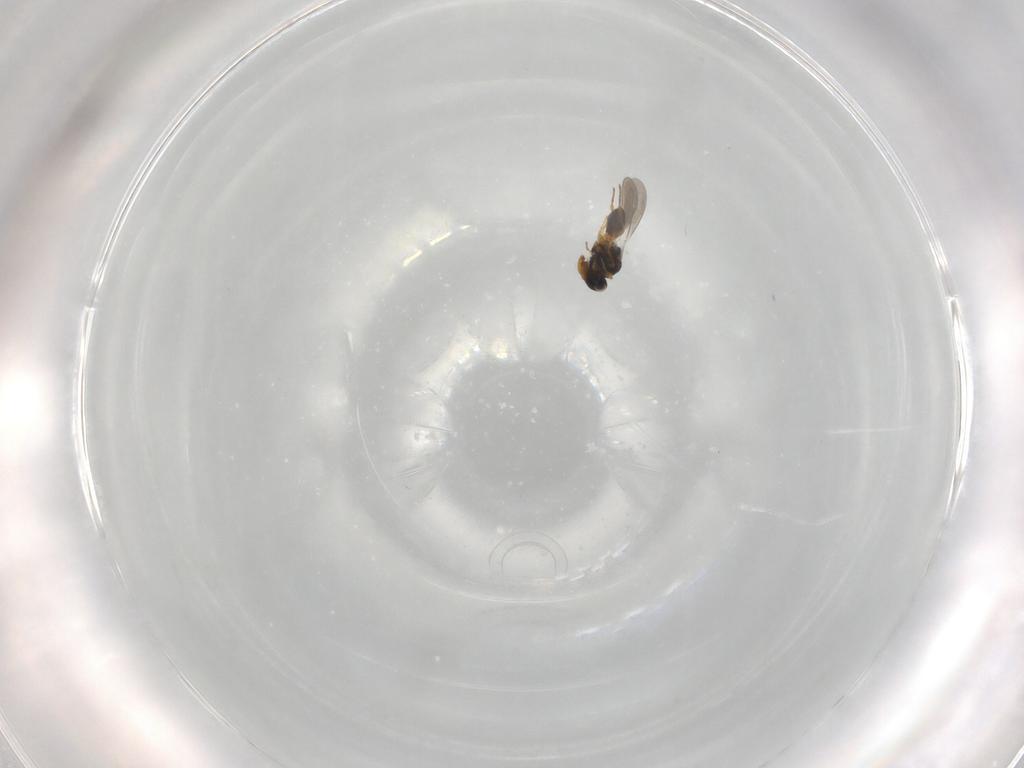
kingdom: Animalia
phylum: Arthropoda
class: Insecta
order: Hymenoptera
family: Platygastridae
